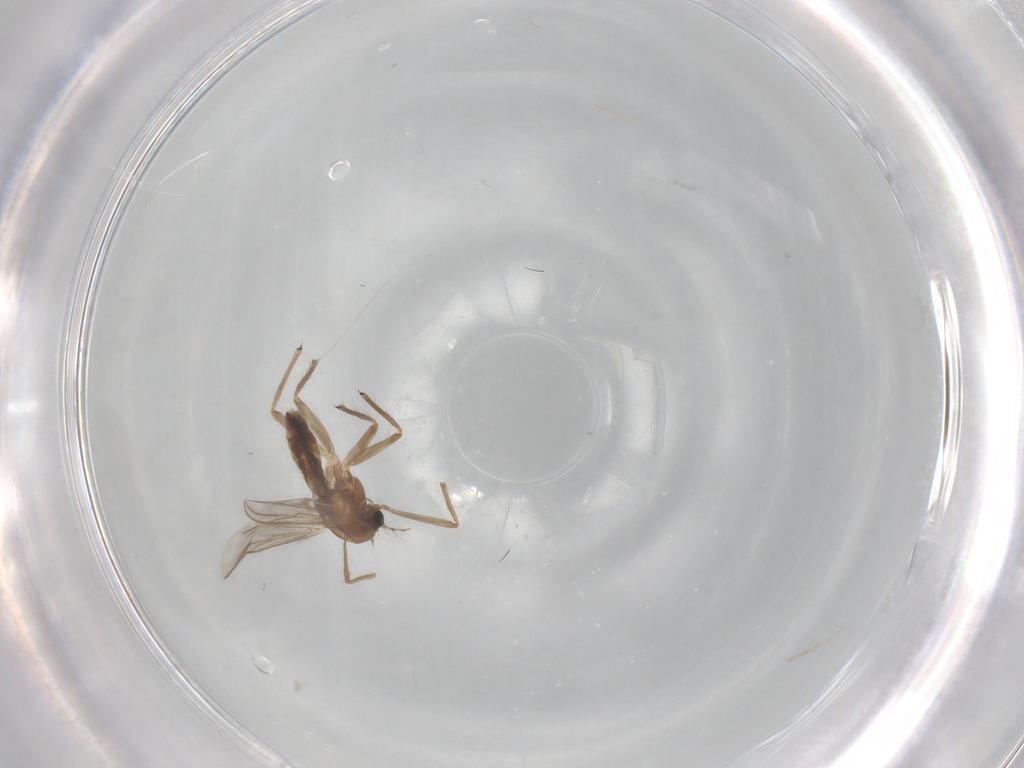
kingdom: Animalia
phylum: Arthropoda
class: Insecta
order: Diptera
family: Chironomidae
